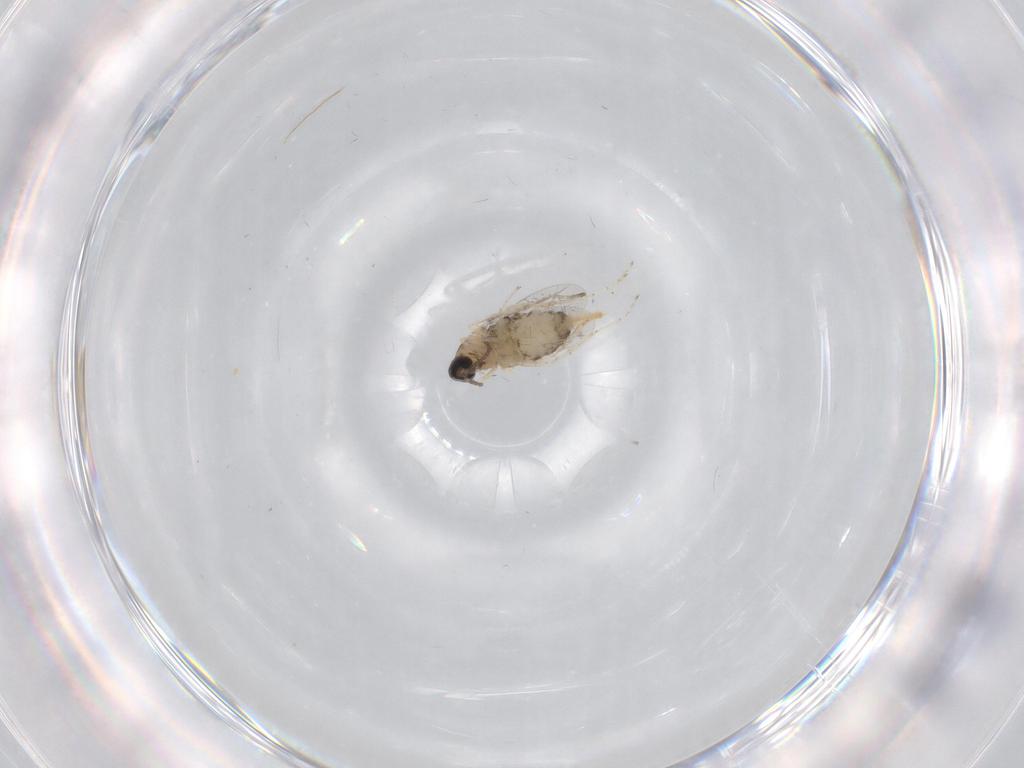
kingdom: Animalia
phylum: Arthropoda
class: Insecta
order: Diptera
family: Cecidomyiidae
